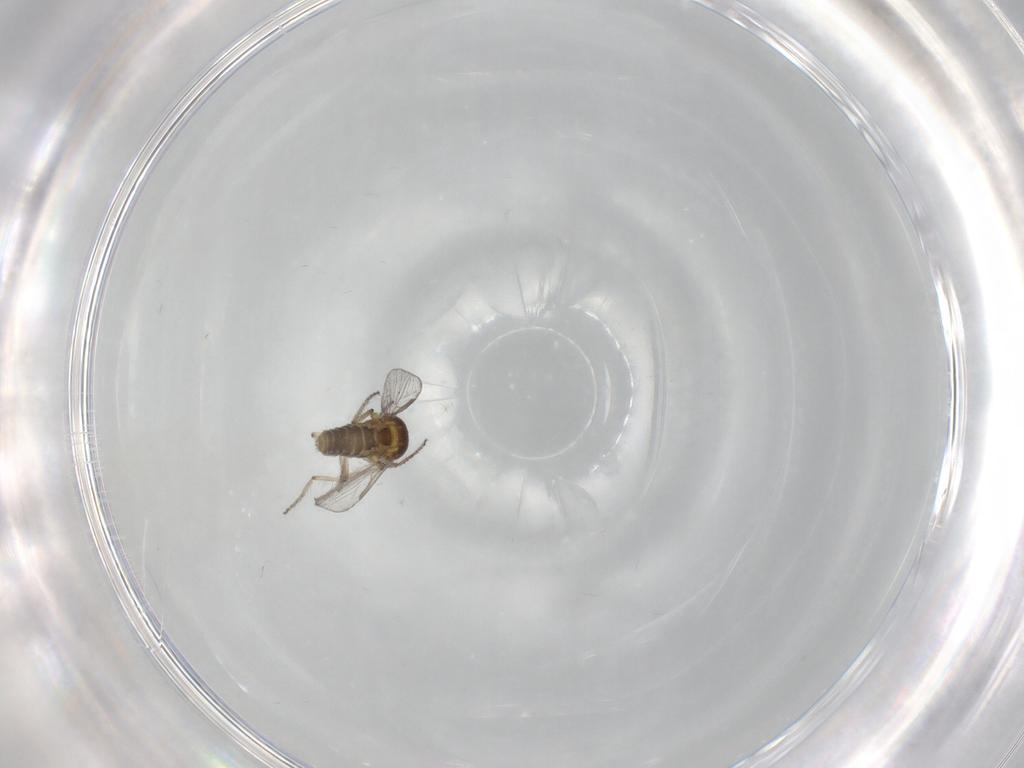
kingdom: Animalia
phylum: Arthropoda
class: Insecta
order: Diptera
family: Ceratopogonidae
